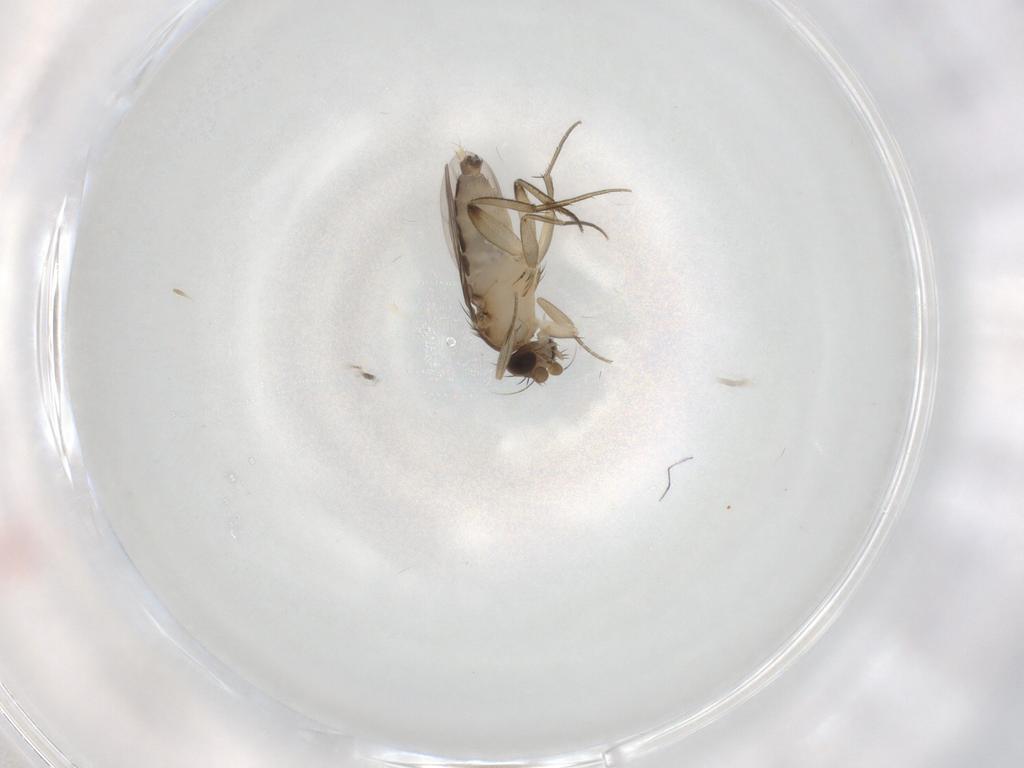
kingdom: Animalia
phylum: Arthropoda
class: Insecta
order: Diptera
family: Phoridae
